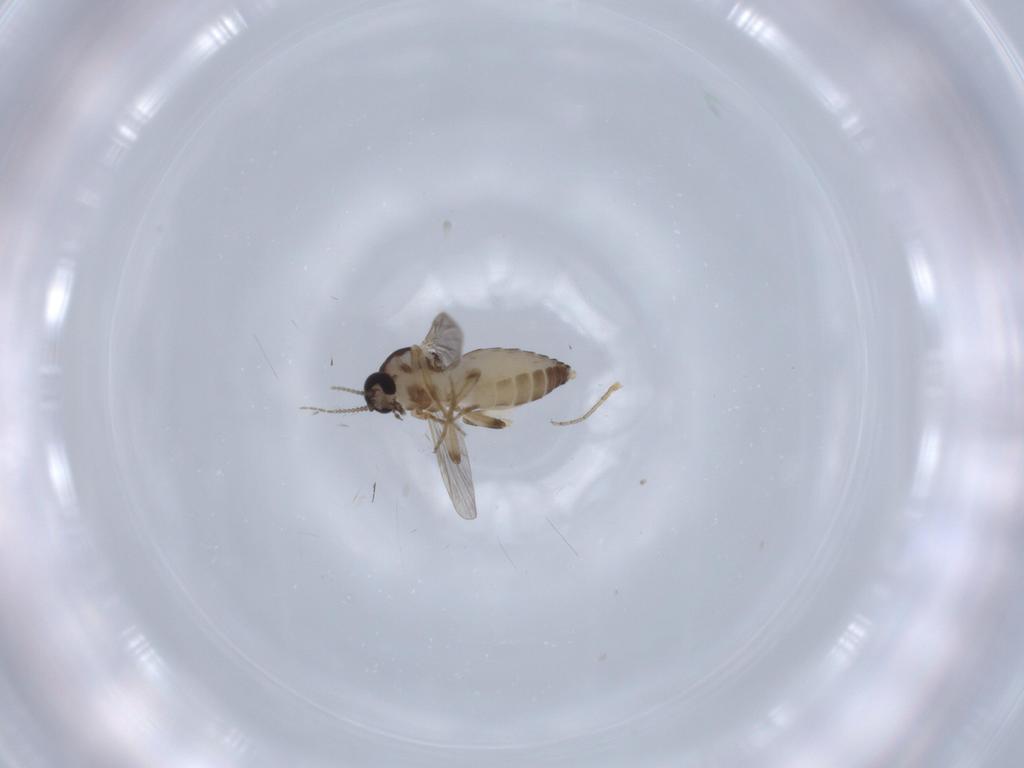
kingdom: Animalia
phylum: Arthropoda
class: Insecta
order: Diptera
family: Ceratopogonidae
